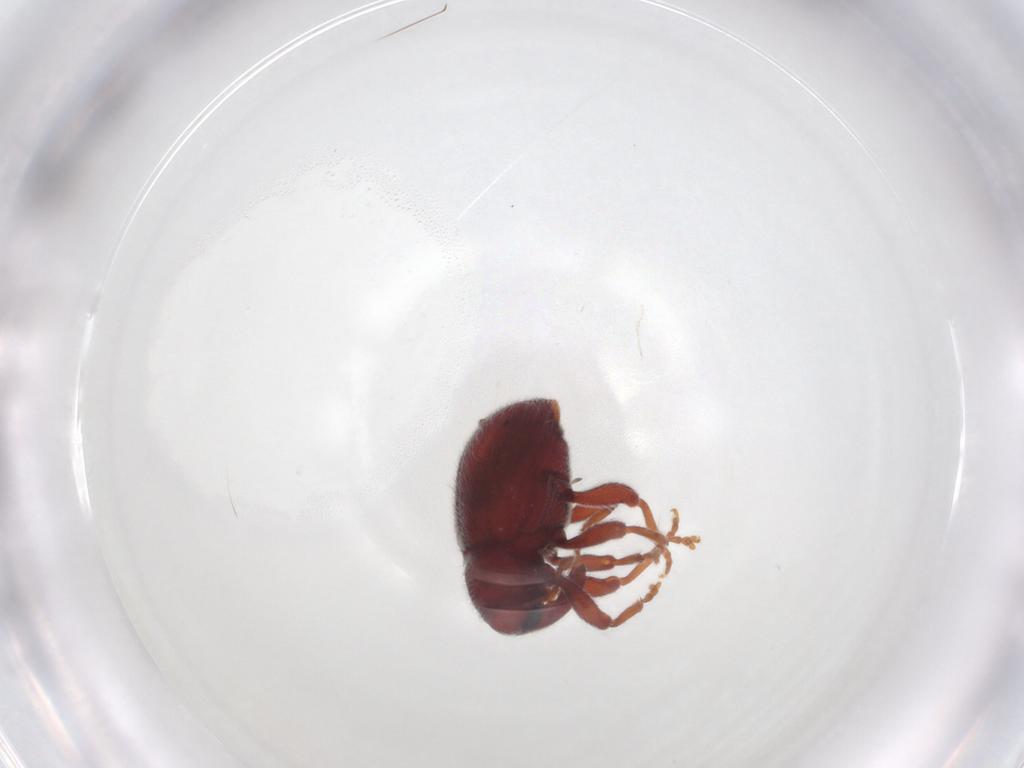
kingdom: Animalia
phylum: Arthropoda
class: Insecta
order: Coleoptera
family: Curculionidae
